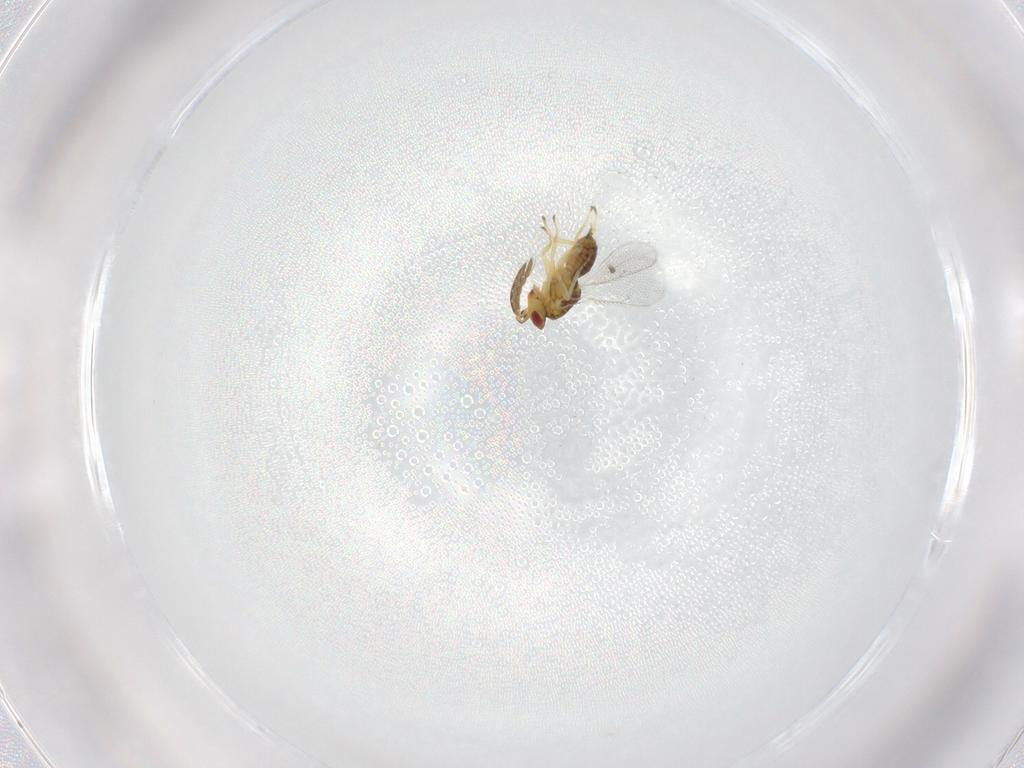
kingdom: Animalia
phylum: Arthropoda
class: Insecta
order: Hymenoptera
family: Eulophidae
